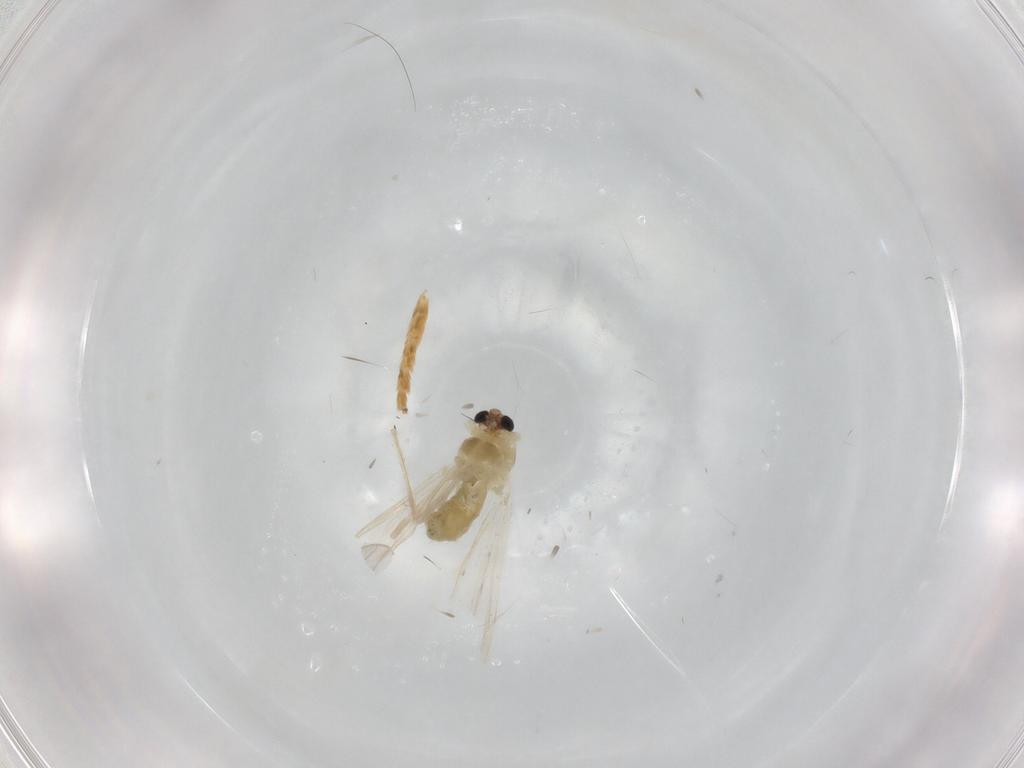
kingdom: Animalia
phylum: Arthropoda
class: Insecta
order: Diptera
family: Chironomidae
